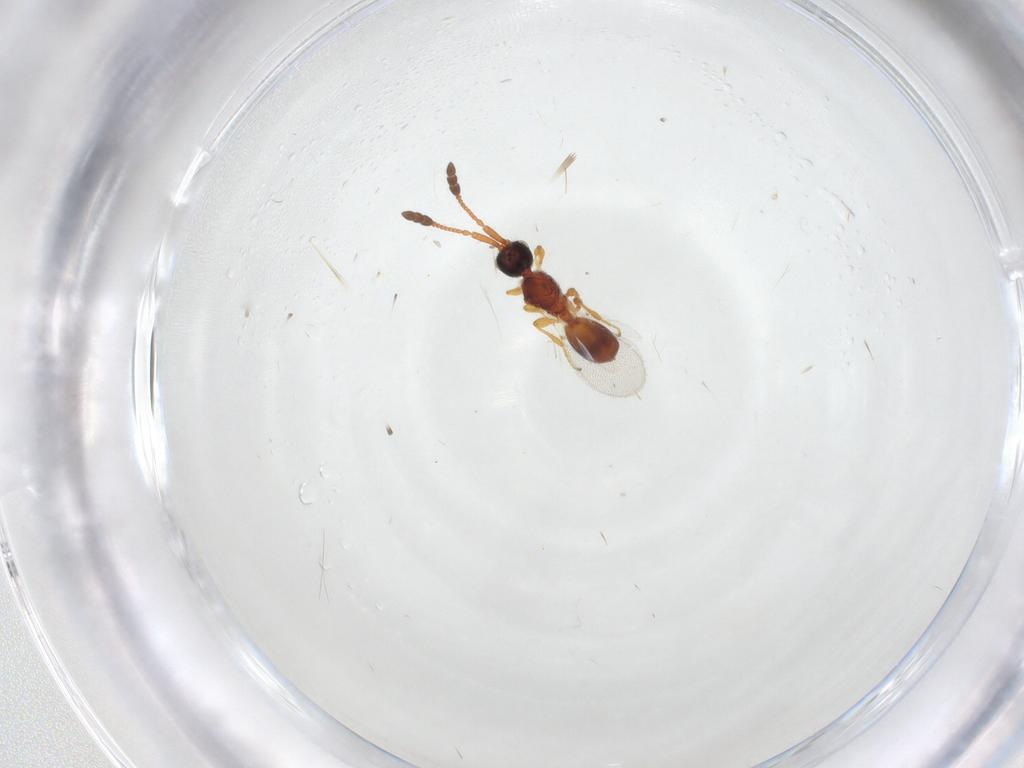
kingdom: Animalia
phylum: Arthropoda
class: Insecta
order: Hymenoptera
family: Diapriidae
